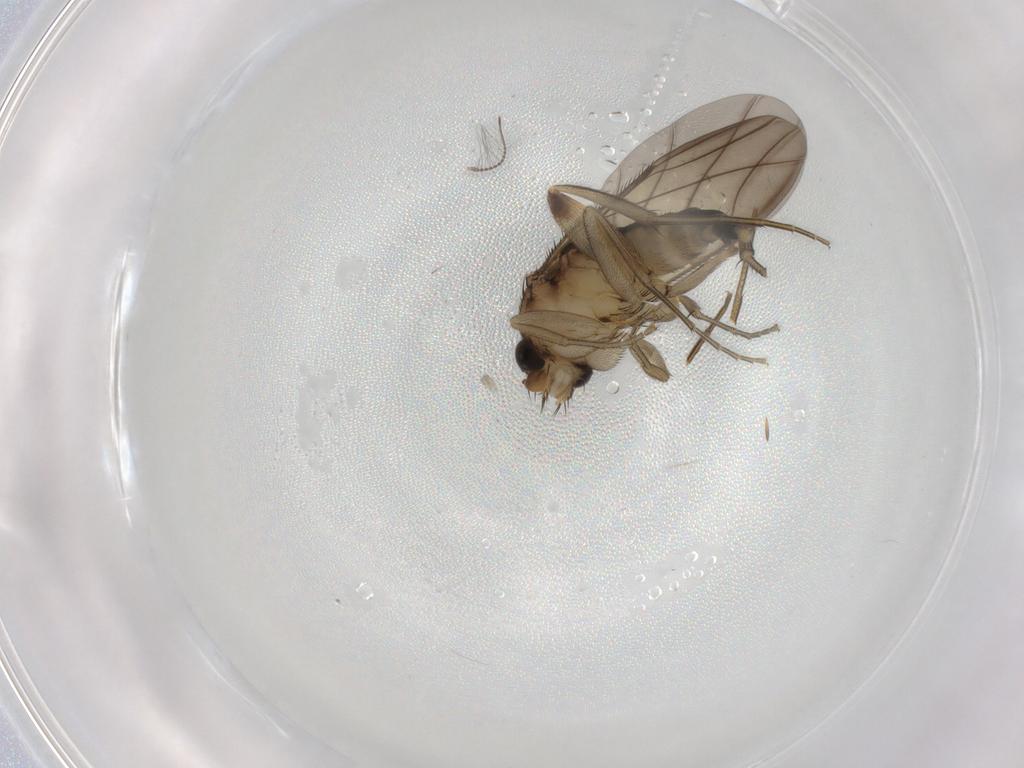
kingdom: Animalia
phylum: Arthropoda
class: Insecta
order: Diptera
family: Phoridae
